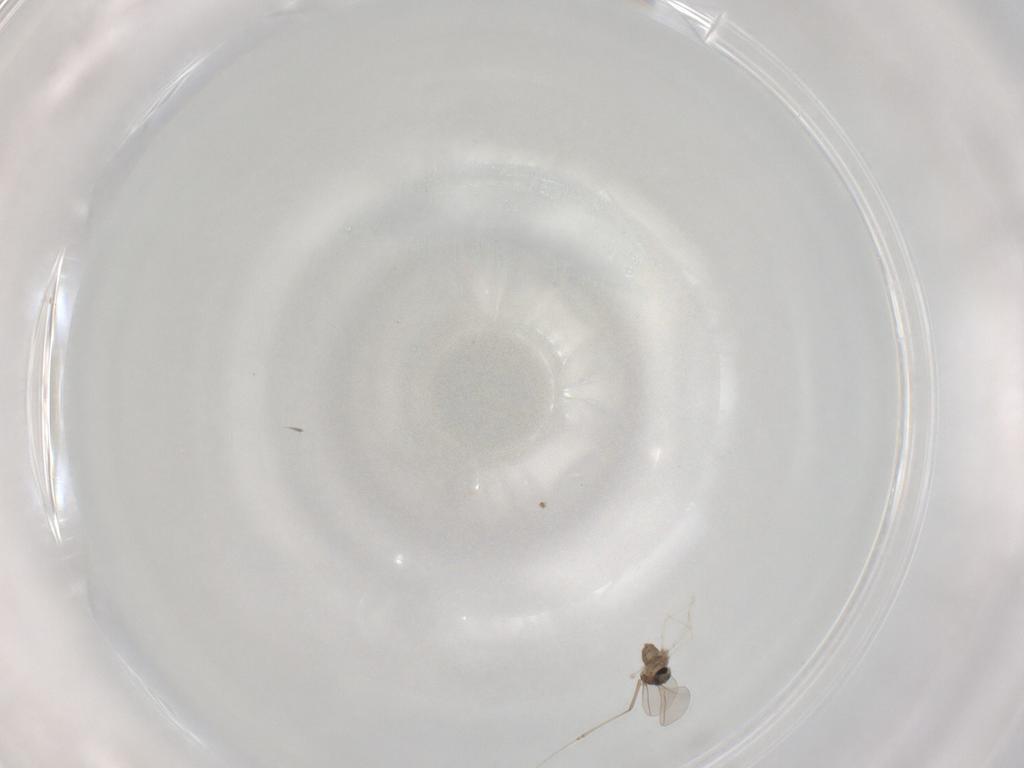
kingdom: Animalia
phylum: Arthropoda
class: Insecta
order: Diptera
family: Cecidomyiidae
